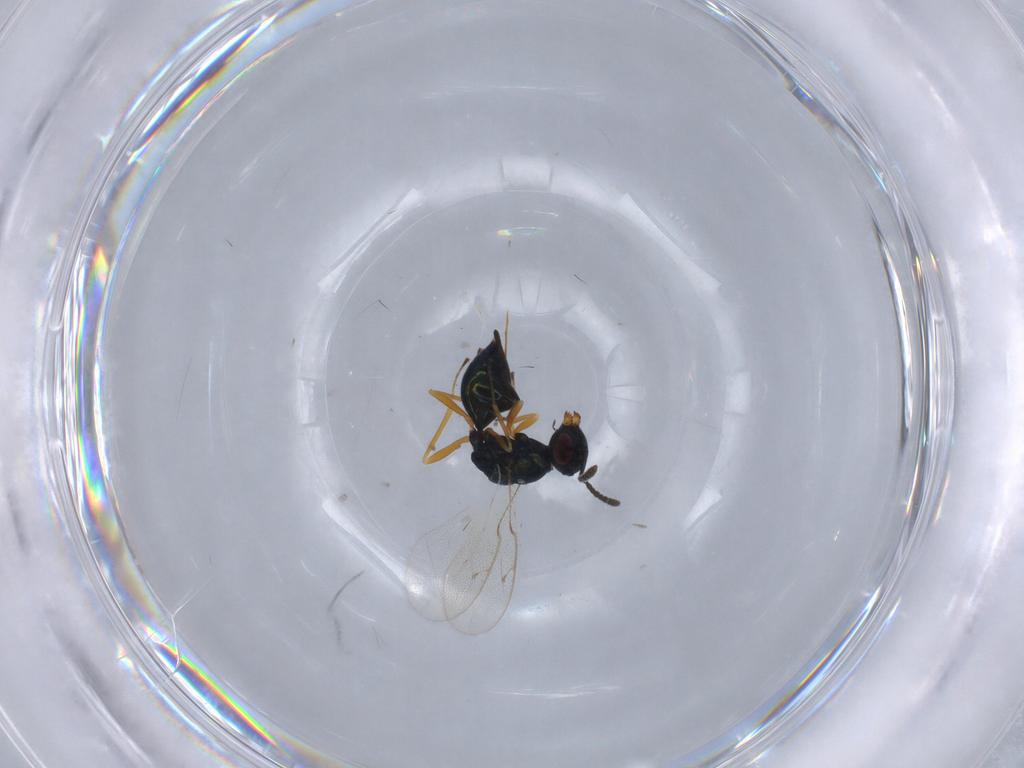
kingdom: Animalia
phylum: Arthropoda
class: Insecta
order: Hymenoptera
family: Pteromalidae
